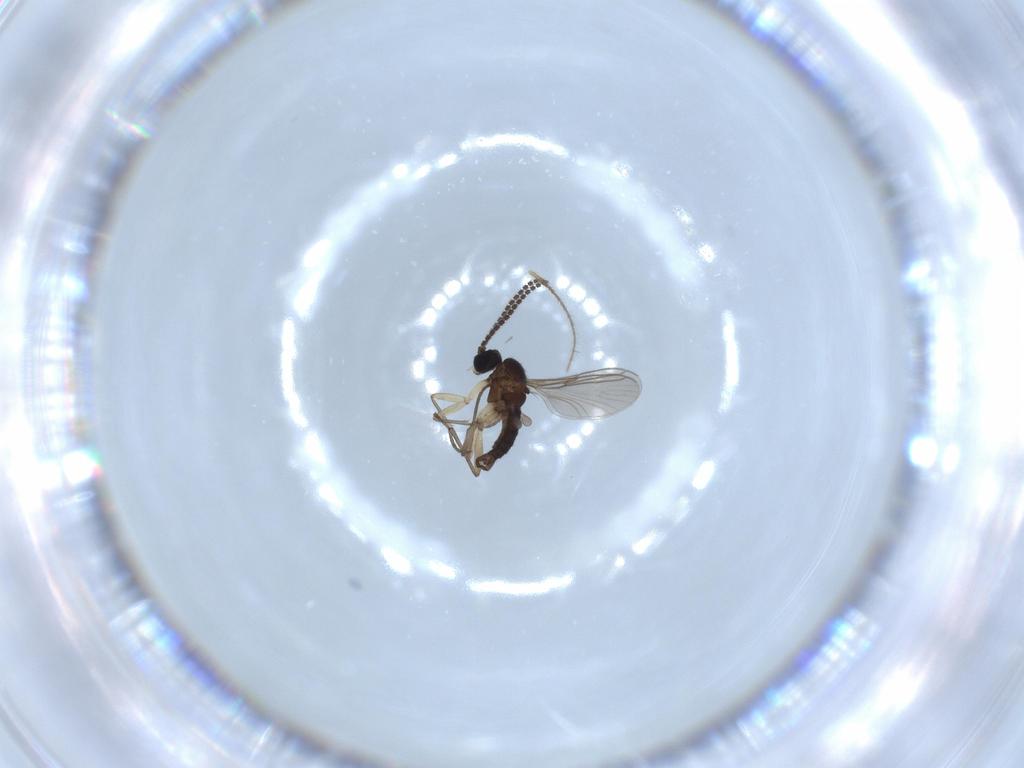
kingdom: Animalia
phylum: Arthropoda
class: Insecta
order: Diptera
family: Sciaridae
